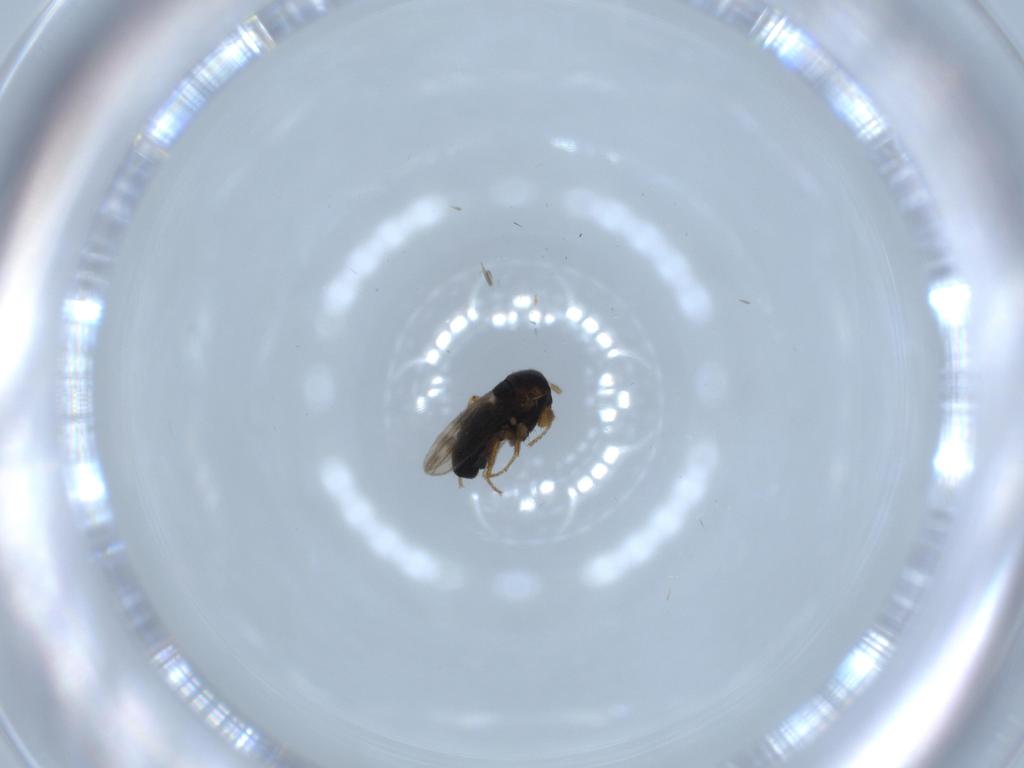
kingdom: Animalia
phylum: Arthropoda
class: Insecta
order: Diptera
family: Sphaeroceridae
